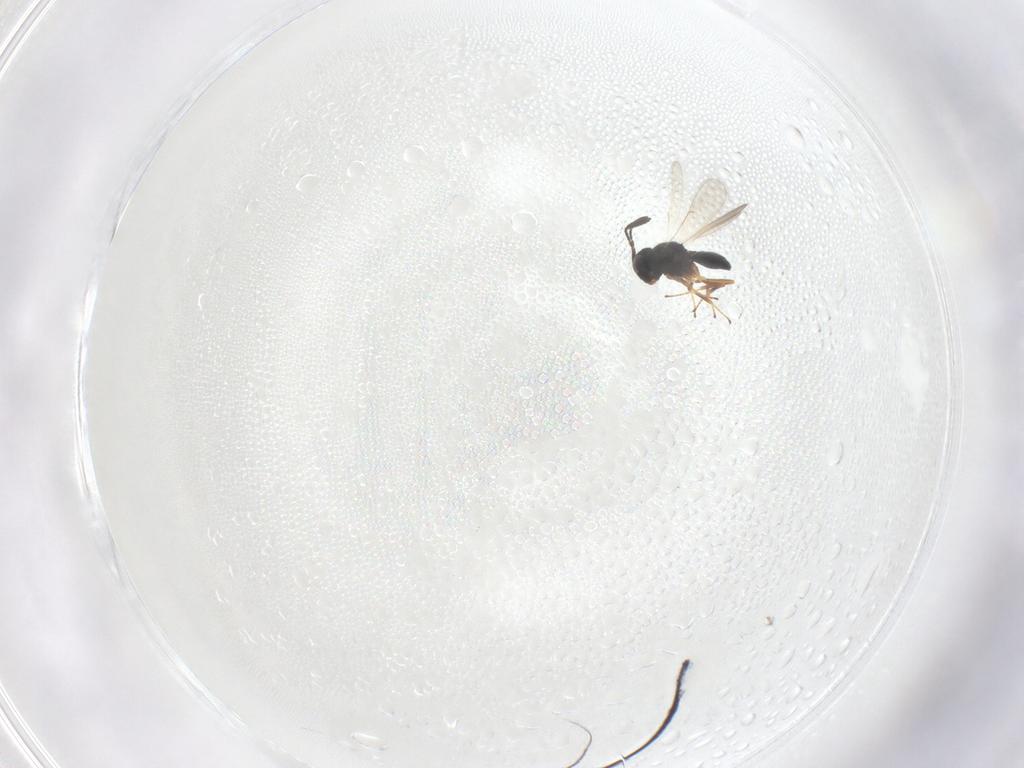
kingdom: Animalia
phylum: Arthropoda
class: Insecta
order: Hymenoptera
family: Scelionidae
